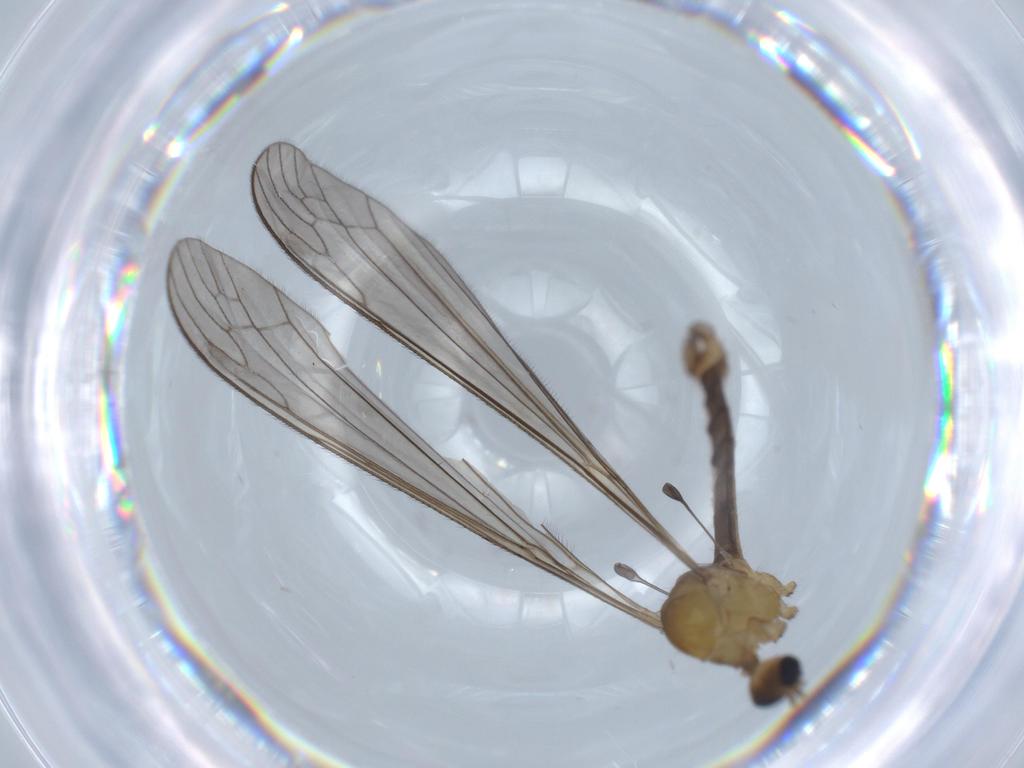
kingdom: Animalia
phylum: Arthropoda
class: Insecta
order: Diptera
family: Limoniidae
